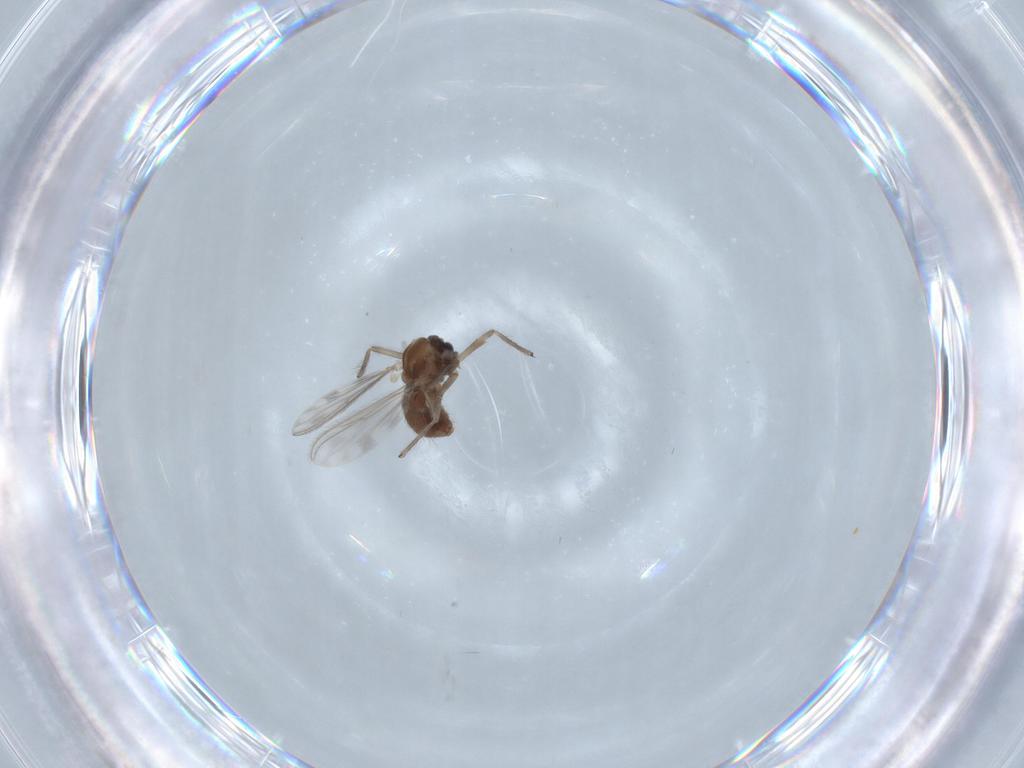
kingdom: Animalia
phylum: Arthropoda
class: Insecta
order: Diptera
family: Chironomidae
